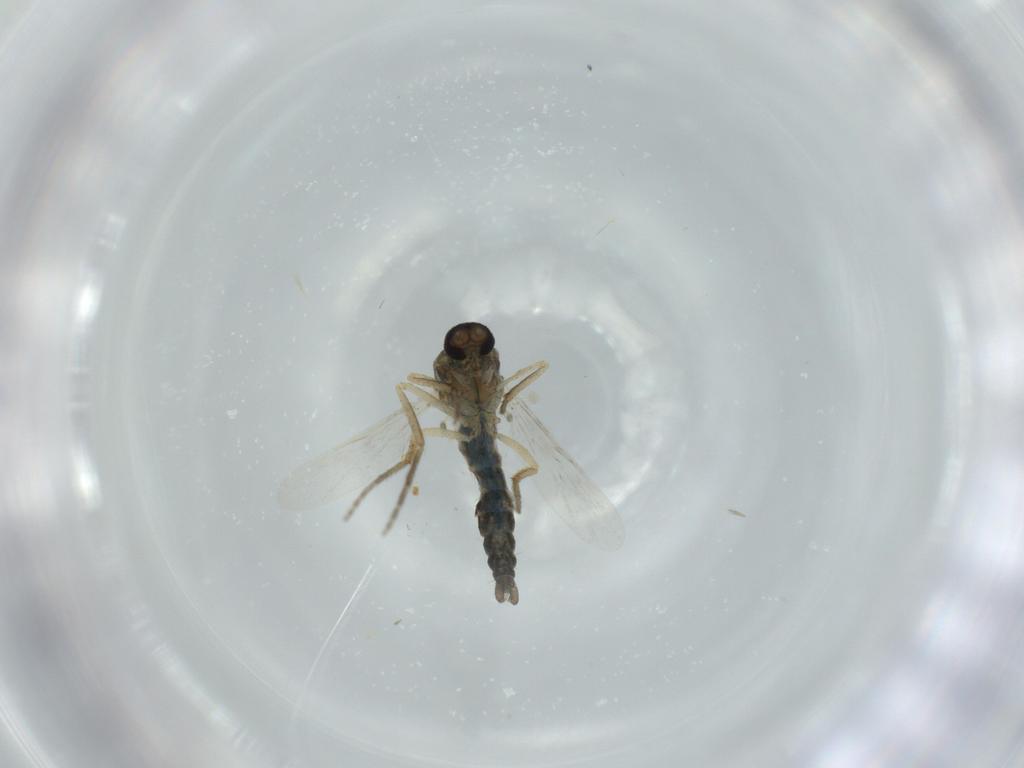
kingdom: Animalia
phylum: Arthropoda
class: Insecta
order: Diptera
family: Ceratopogonidae
